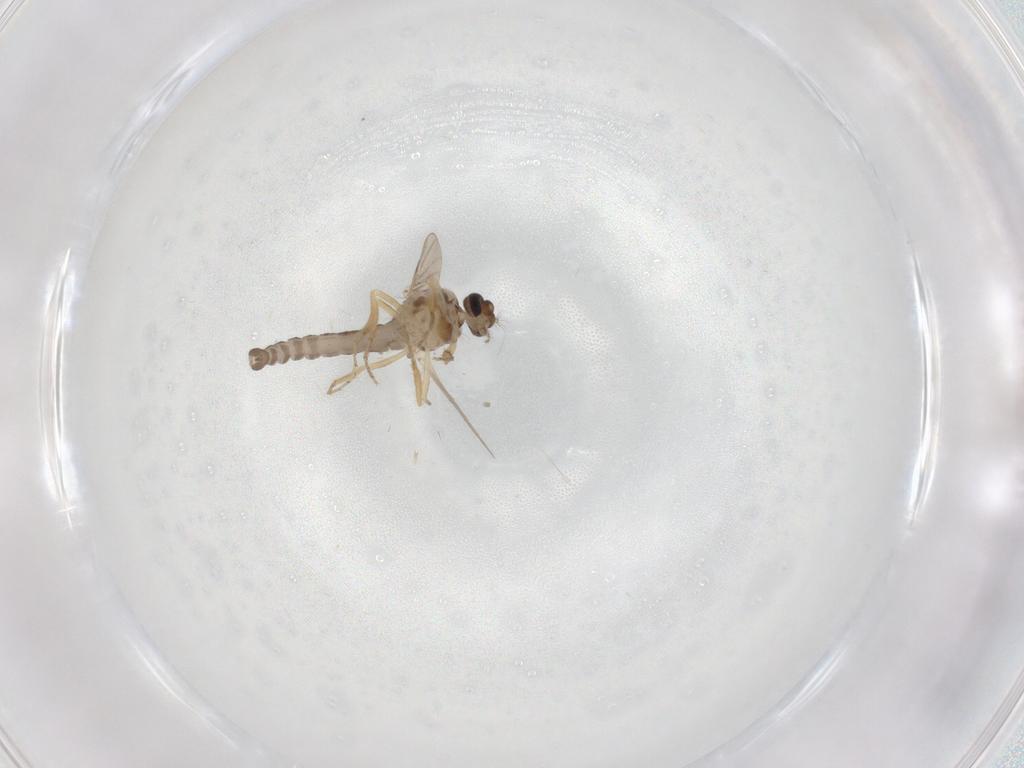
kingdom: Animalia
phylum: Arthropoda
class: Insecta
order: Diptera
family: Ceratopogonidae
